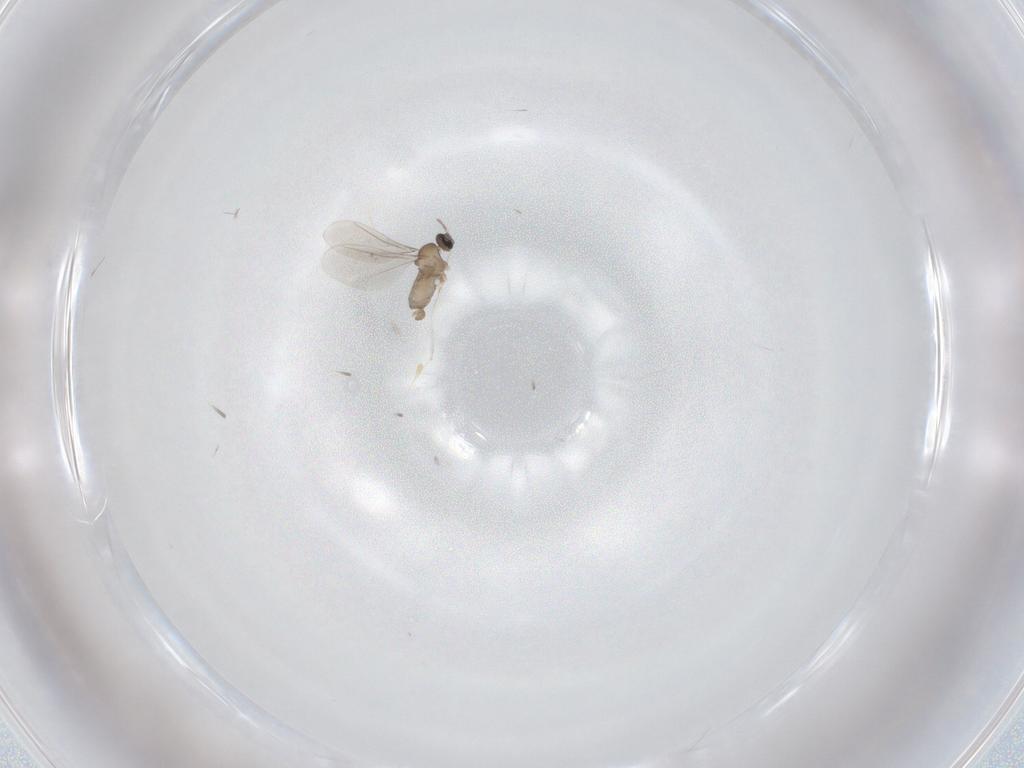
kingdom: Animalia
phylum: Arthropoda
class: Insecta
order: Diptera
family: Cecidomyiidae
